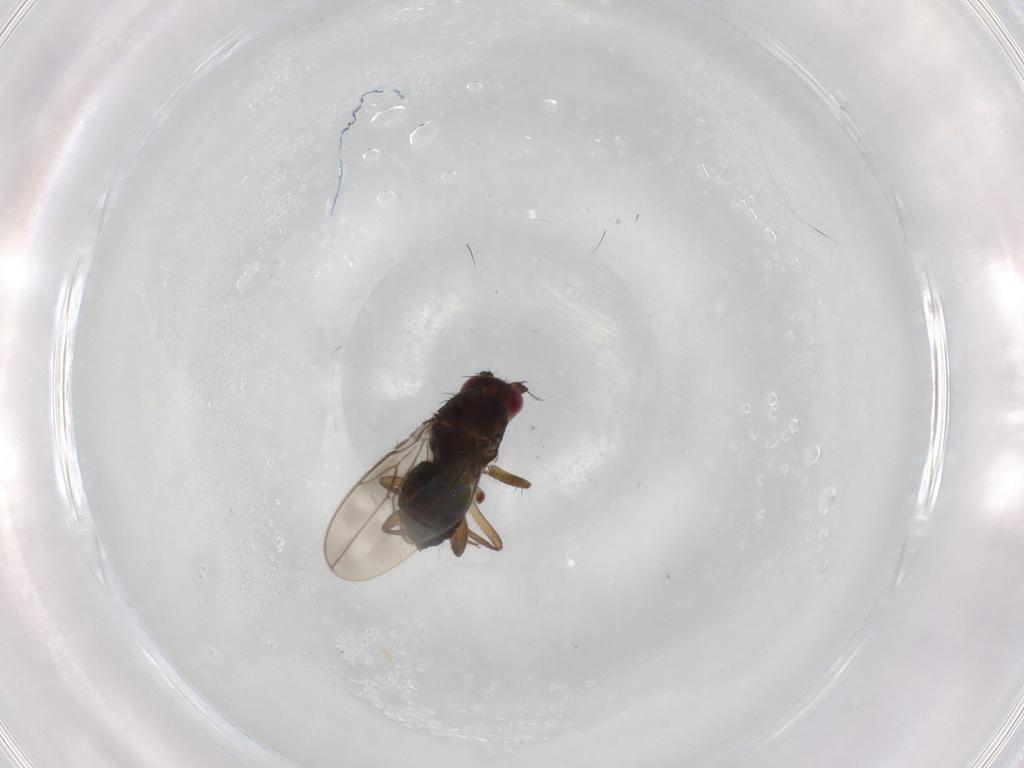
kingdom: Animalia
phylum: Arthropoda
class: Insecta
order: Diptera
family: Sphaeroceridae
